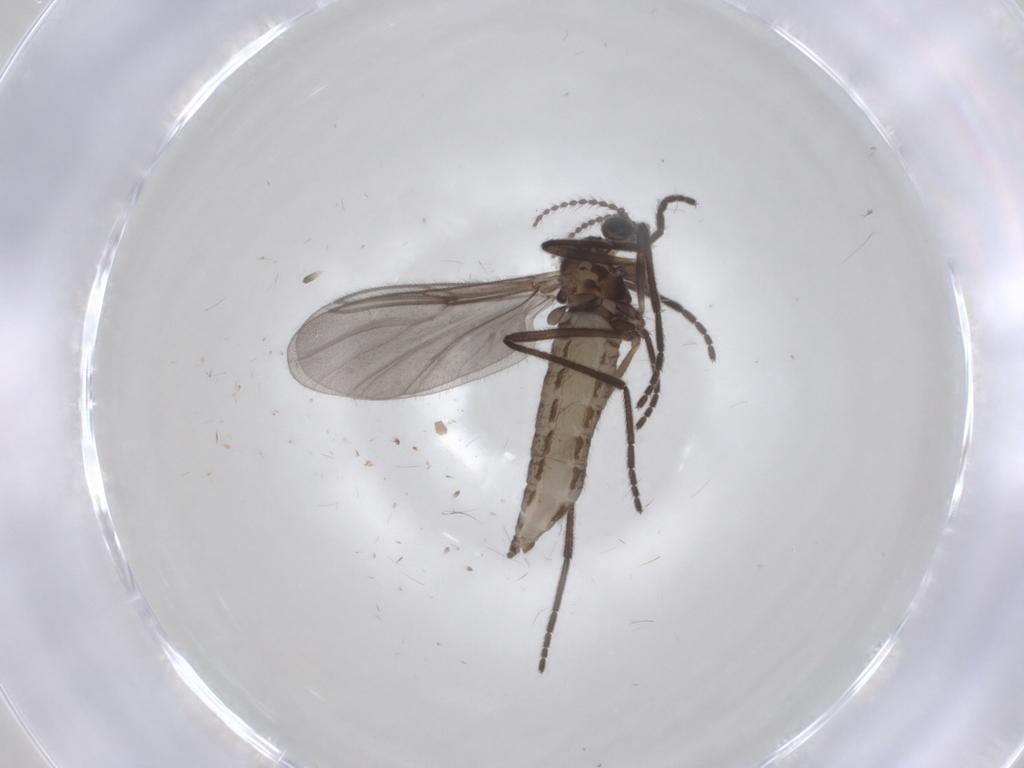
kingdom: Animalia
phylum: Arthropoda
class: Insecta
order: Diptera
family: Cecidomyiidae
